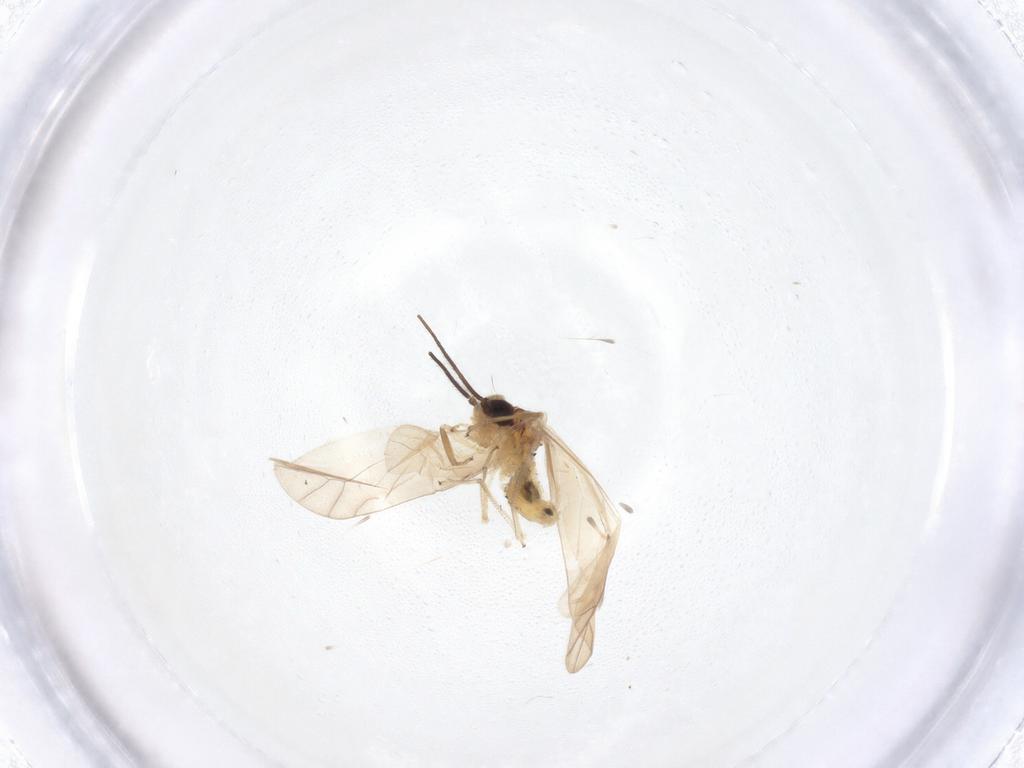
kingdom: Animalia
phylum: Arthropoda
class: Insecta
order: Psocodea
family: Caeciliusidae
